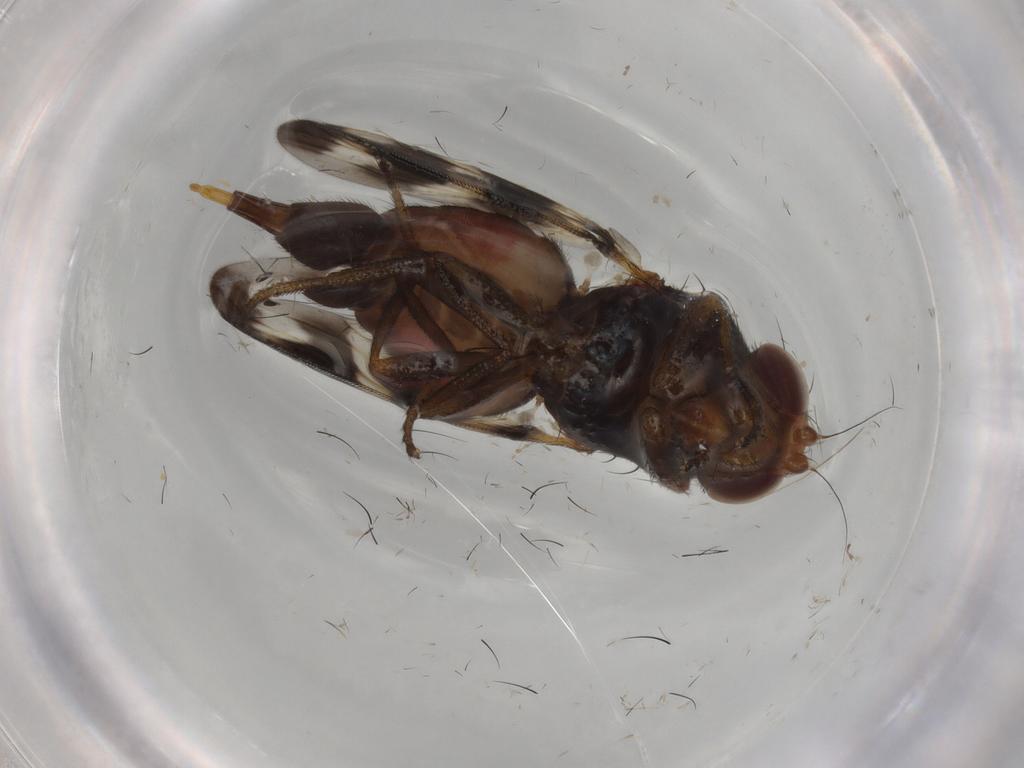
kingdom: Animalia
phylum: Arthropoda
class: Insecta
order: Diptera
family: Ulidiidae
